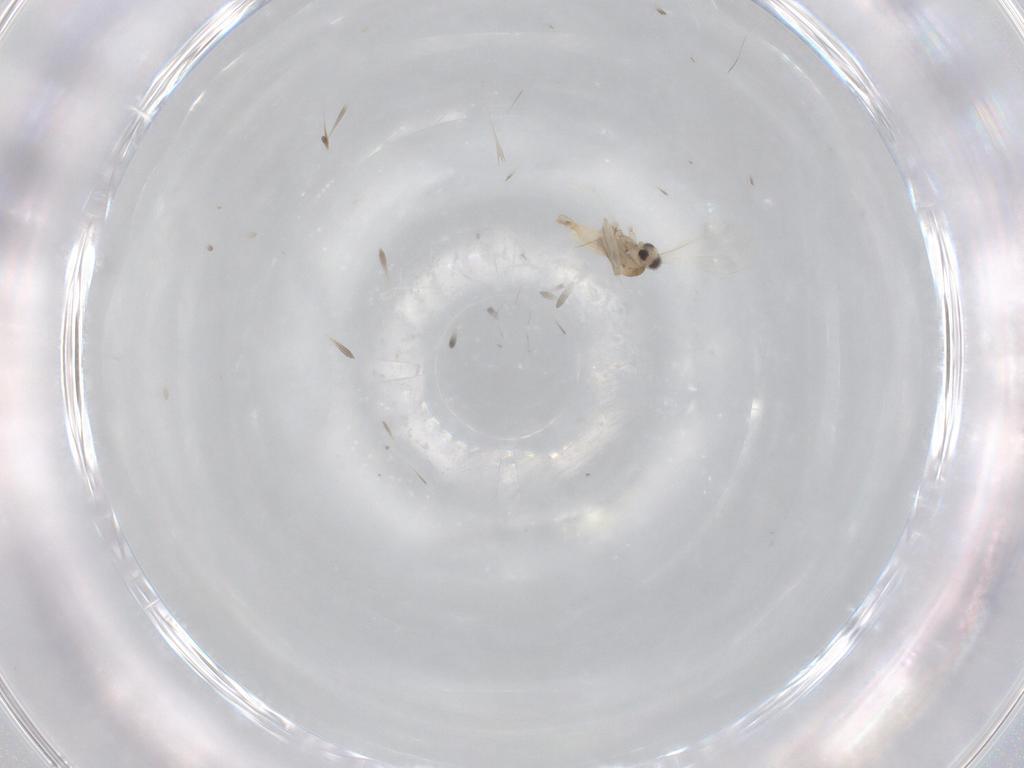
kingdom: Animalia
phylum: Arthropoda
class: Insecta
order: Diptera
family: Cecidomyiidae
